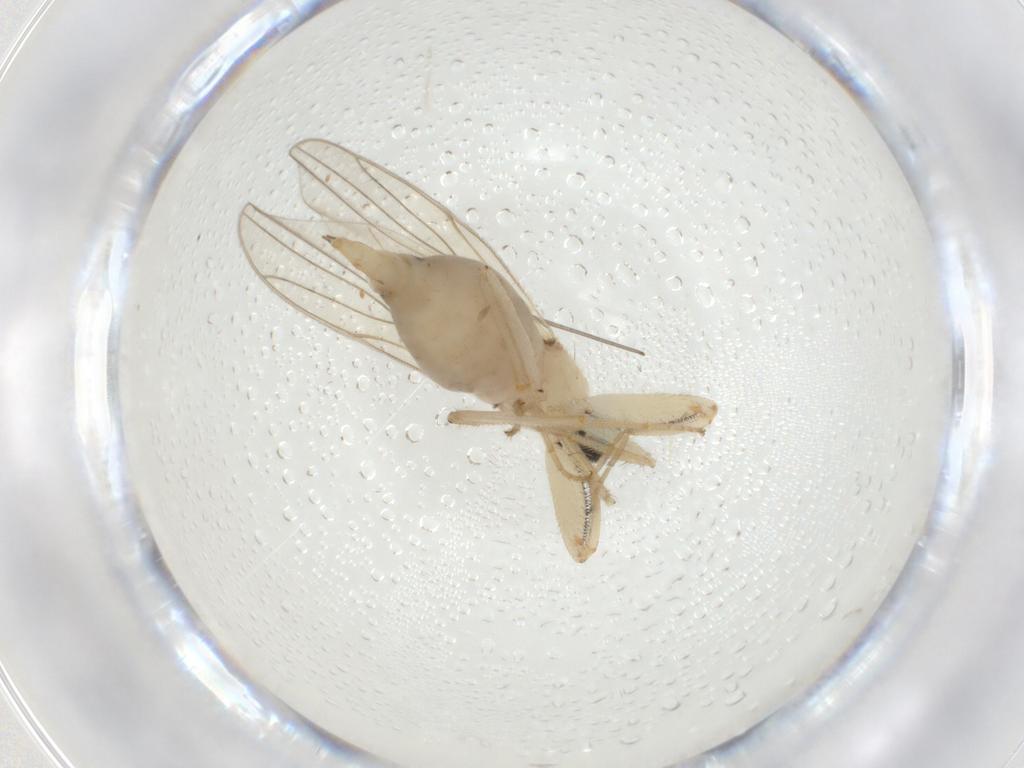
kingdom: Animalia
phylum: Arthropoda
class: Insecta
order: Diptera
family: Hybotidae
